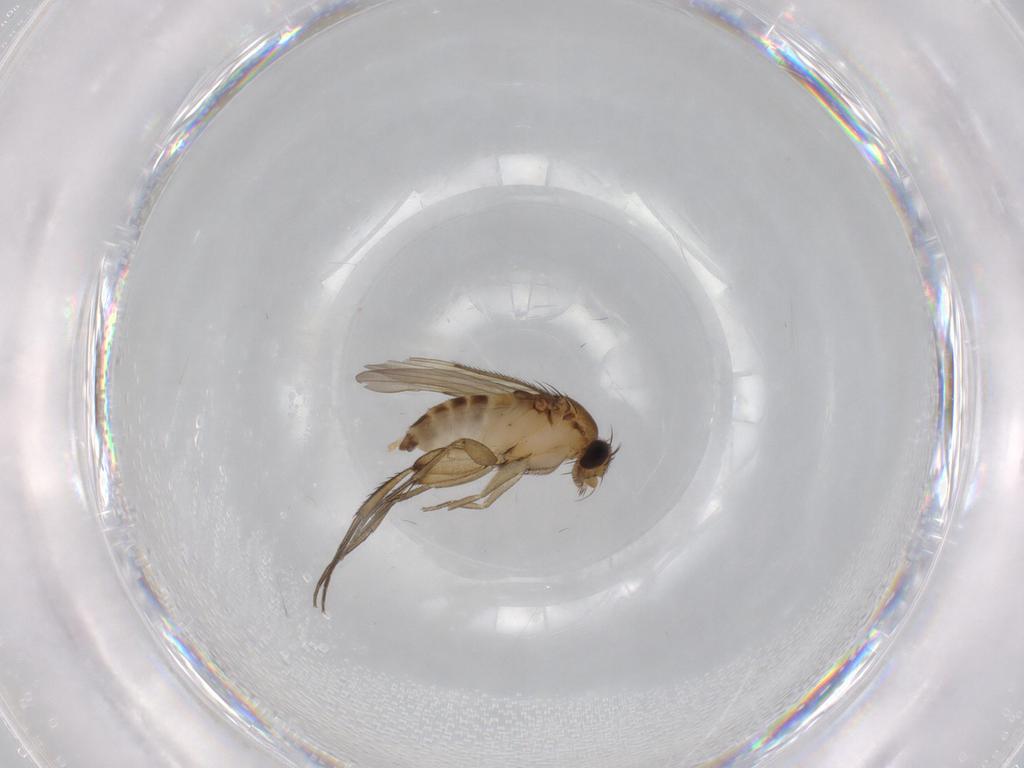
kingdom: Animalia
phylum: Arthropoda
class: Insecta
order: Diptera
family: Phoridae
